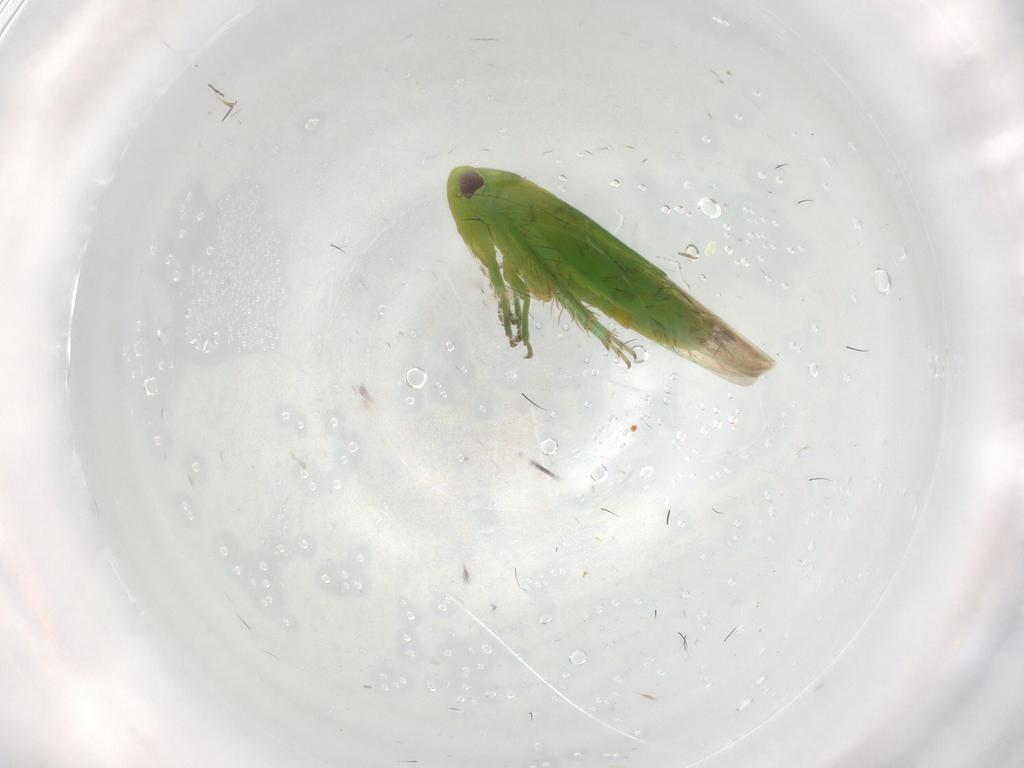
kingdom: Animalia
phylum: Arthropoda
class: Insecta
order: Hemiptera
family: Cicadellidae
